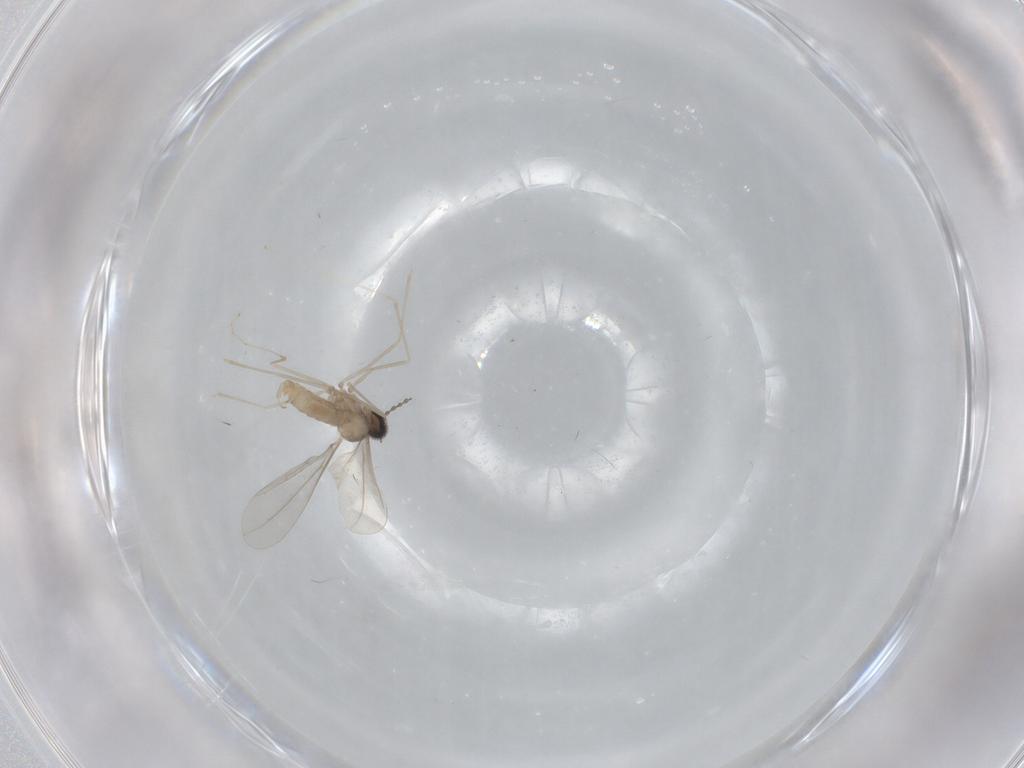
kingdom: Animalia
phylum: Arthropoda
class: Insecta
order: Diptera
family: Cecidomyiidae
